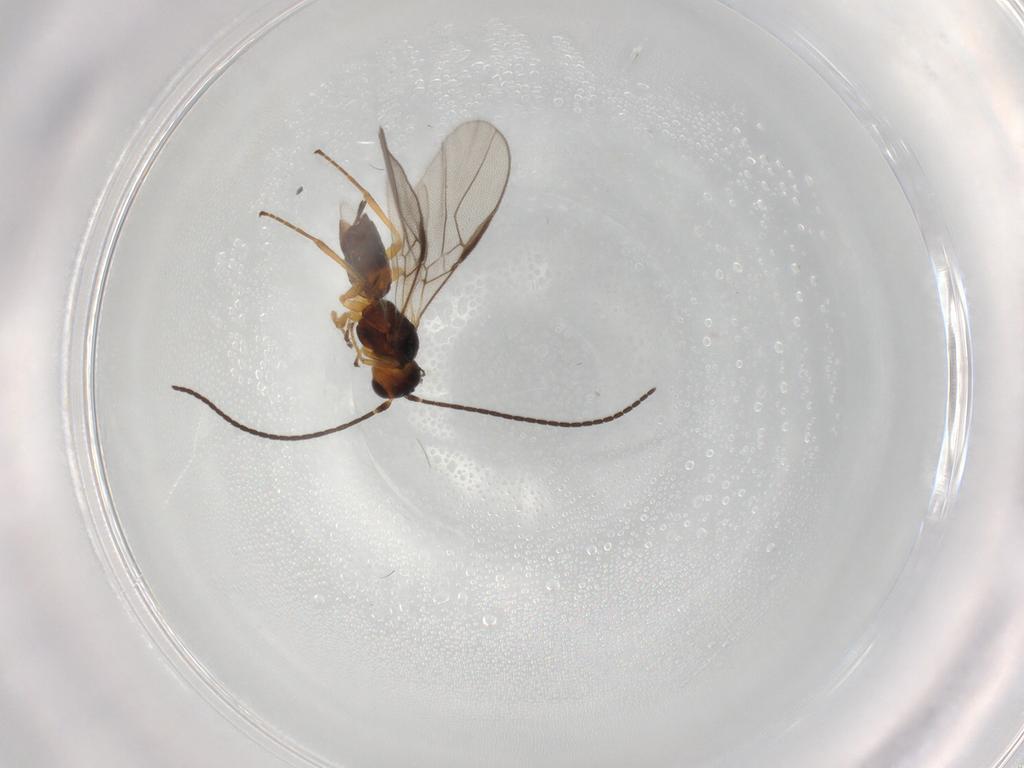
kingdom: Animalia
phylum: Arthropoda
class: Insecta
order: Hymenoptera
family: Braconidae
